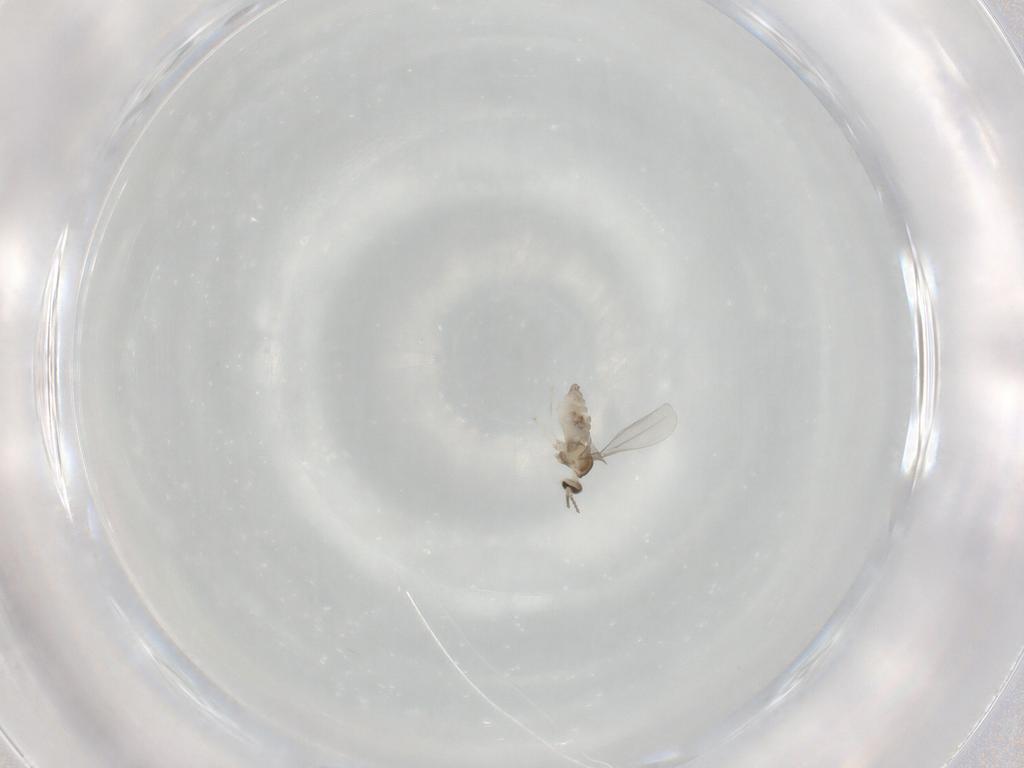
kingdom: Animalia
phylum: Arthropoda
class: Insecta
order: Diptera
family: Cecidomyiidae
